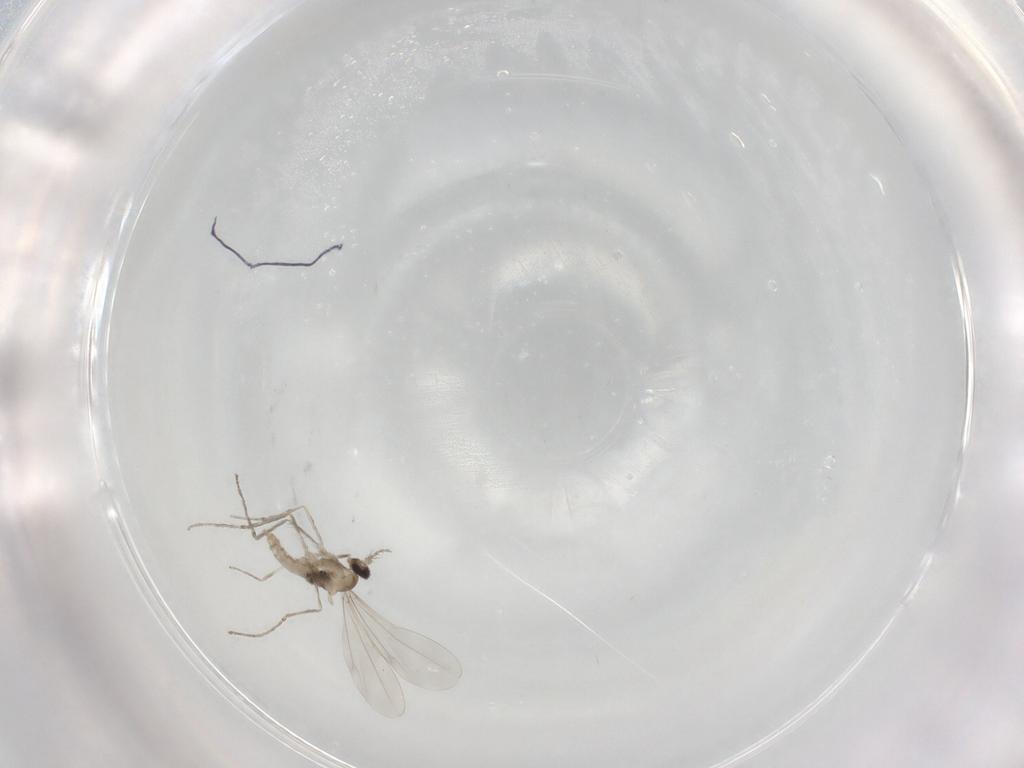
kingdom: Animalia
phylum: Arthropoda
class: Insecta
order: Diptera
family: Cecidomyiidae
